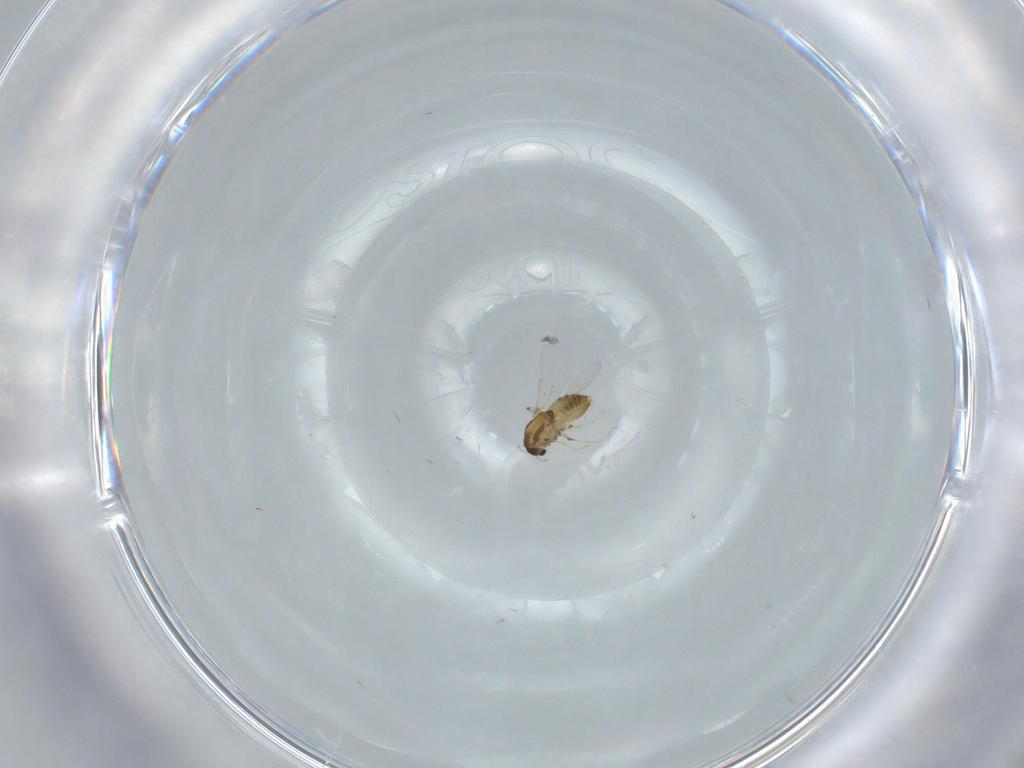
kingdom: Animalia
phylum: Arthropoda
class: Insecta
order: Diptera
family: Chironomidae
